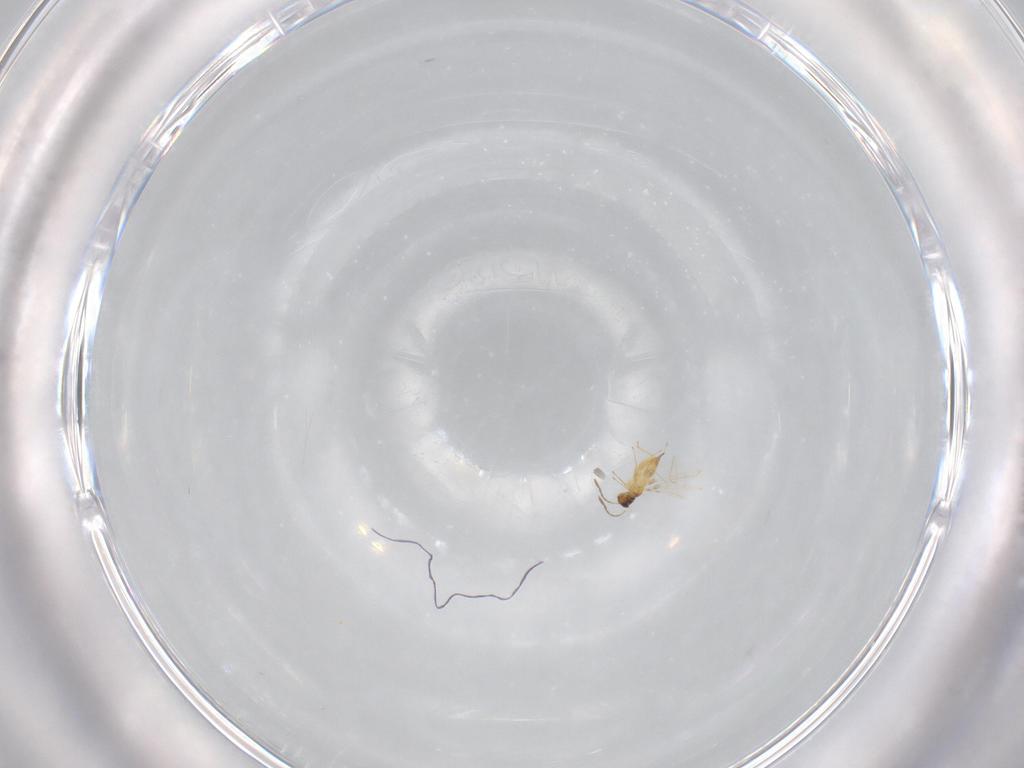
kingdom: Animalia
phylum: Arthropoda
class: Insecta
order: Hymenoptera
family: Mymaridae
